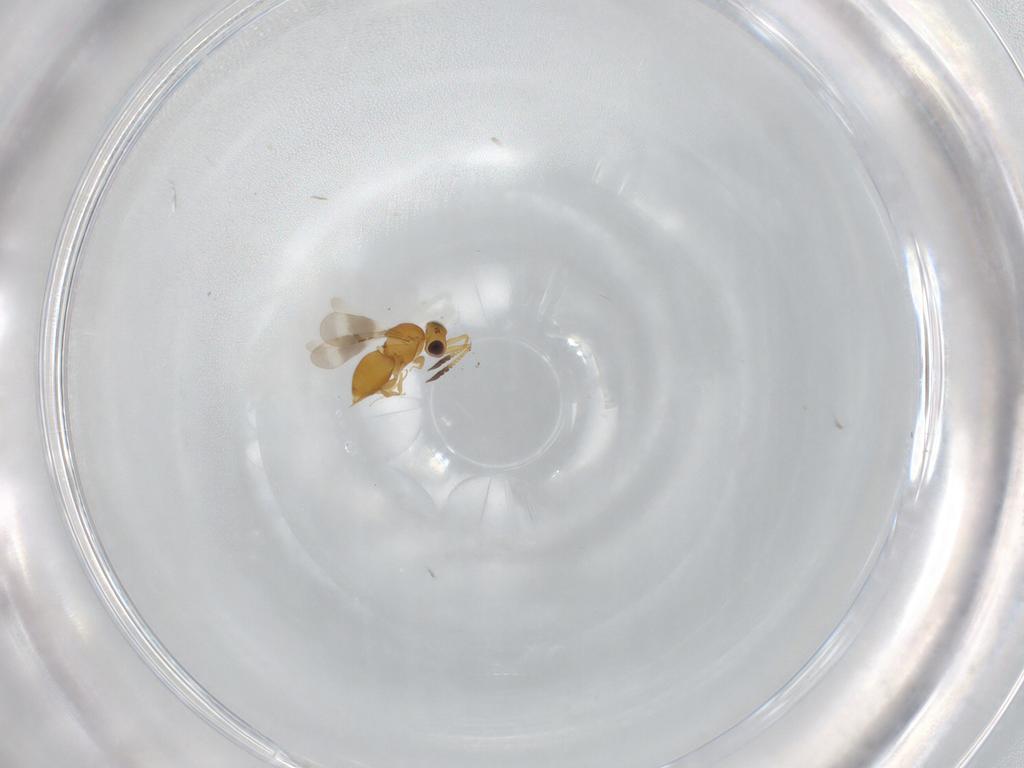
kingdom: Animalia
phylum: Arthropoda
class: Insecta
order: Hymenoptera
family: Ceraphronidae
